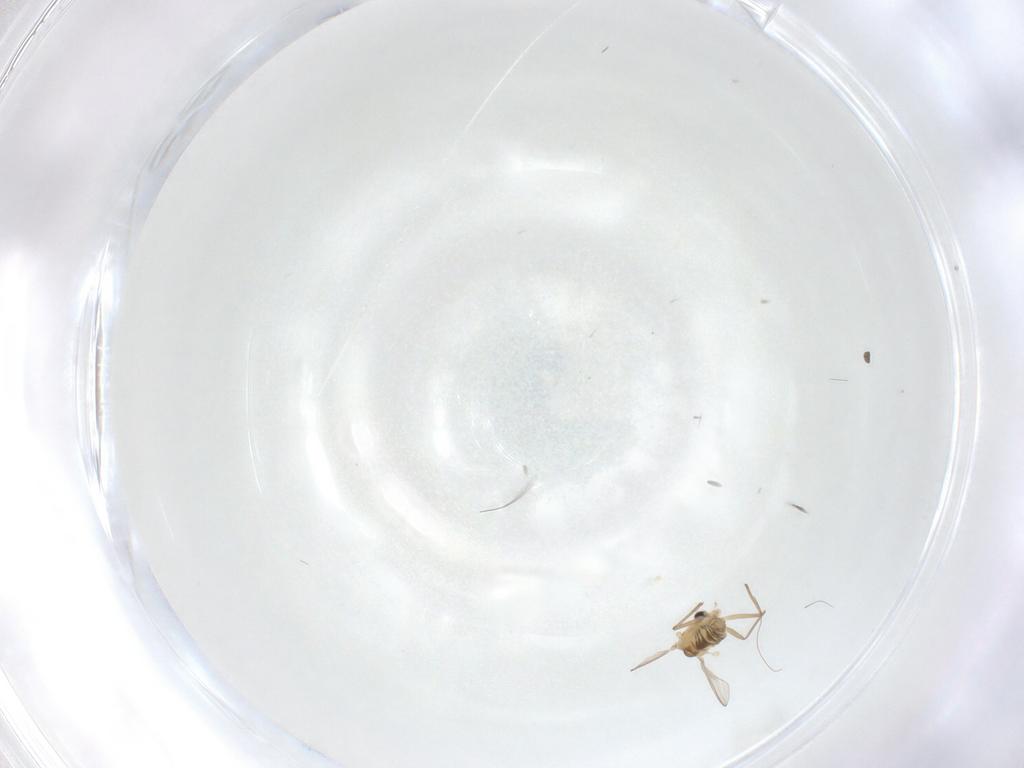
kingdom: Animalia
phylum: Arthropoda
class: Insecta
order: Diptera
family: Chironomidae
